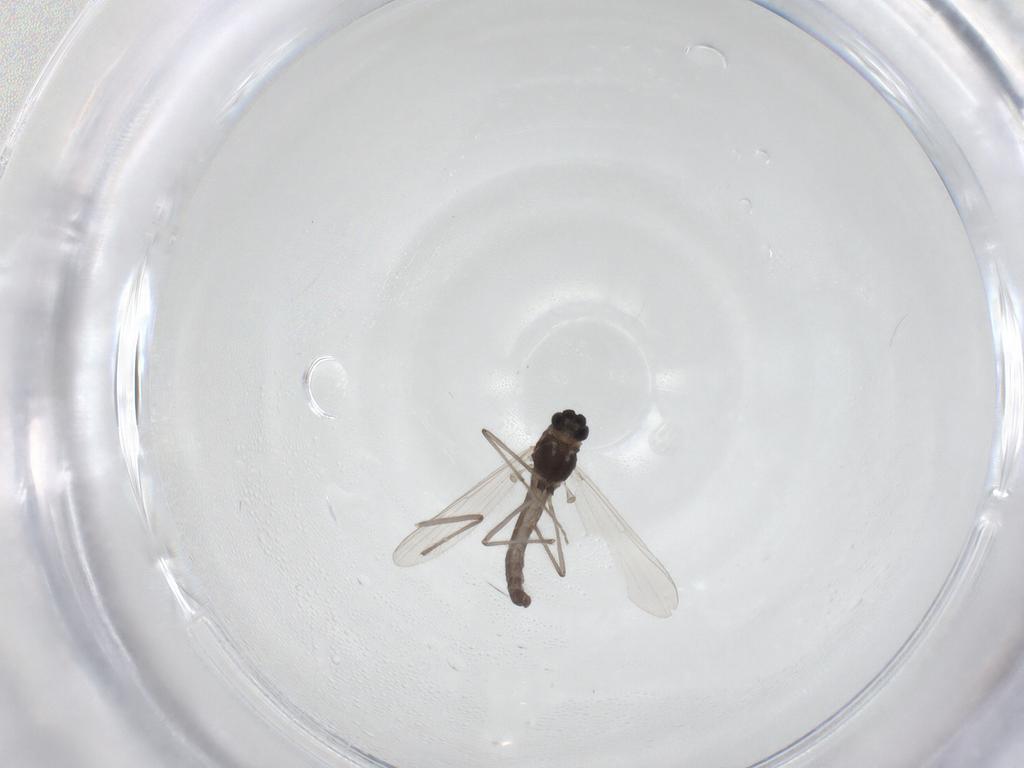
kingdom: Animalia
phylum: Arthropoda
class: Insecta
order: Diptera
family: Chironomidae
